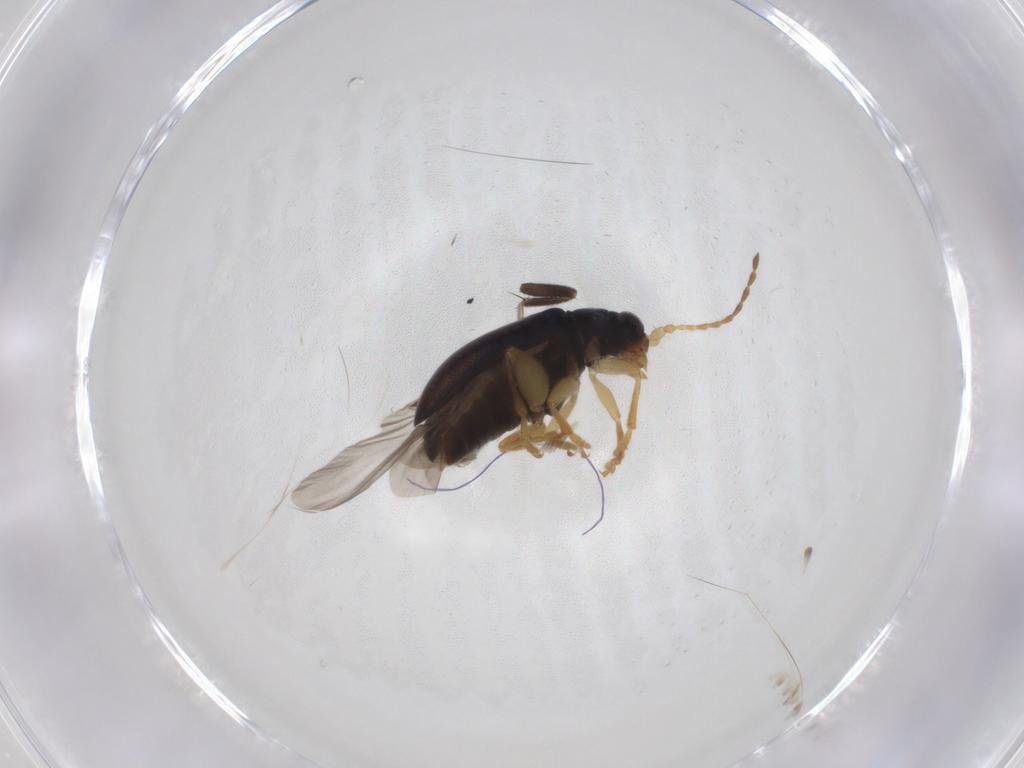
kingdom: Animalia
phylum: Arthropoda
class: Insecta
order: Coleoptera
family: Chrysomelidae
